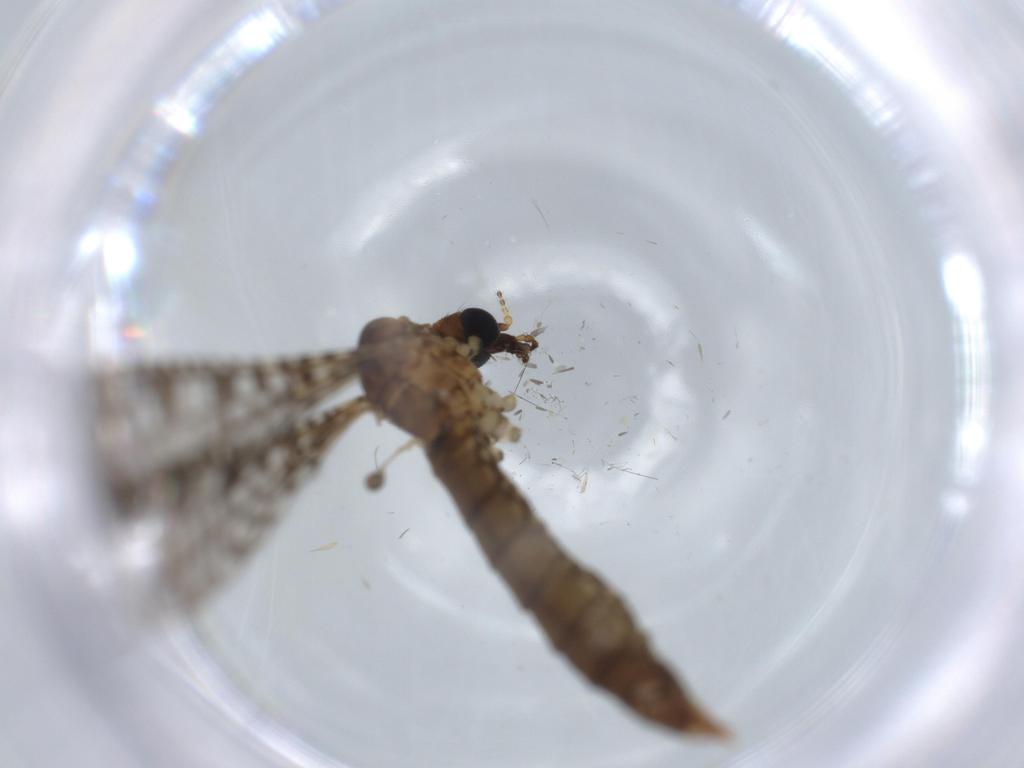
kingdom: Animalia
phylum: Arthropoda
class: Insecta
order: Diptera
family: Limoniidae
